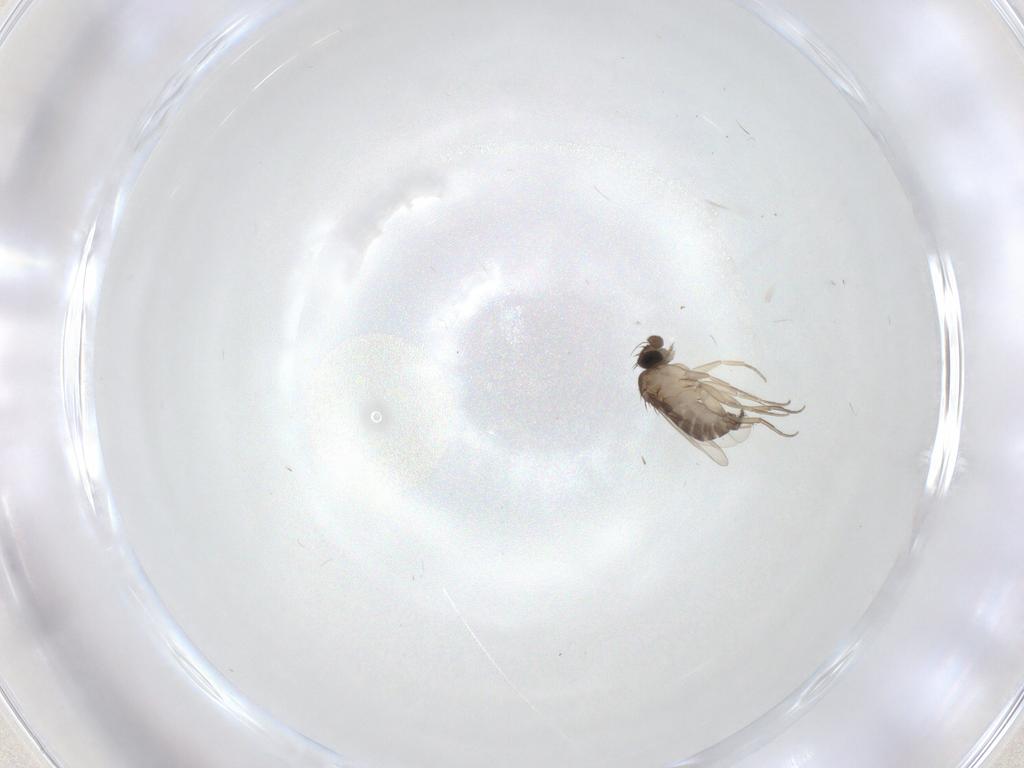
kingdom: Animalia
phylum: Arthropoda
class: Insecta
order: Diptera
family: Phoridae
